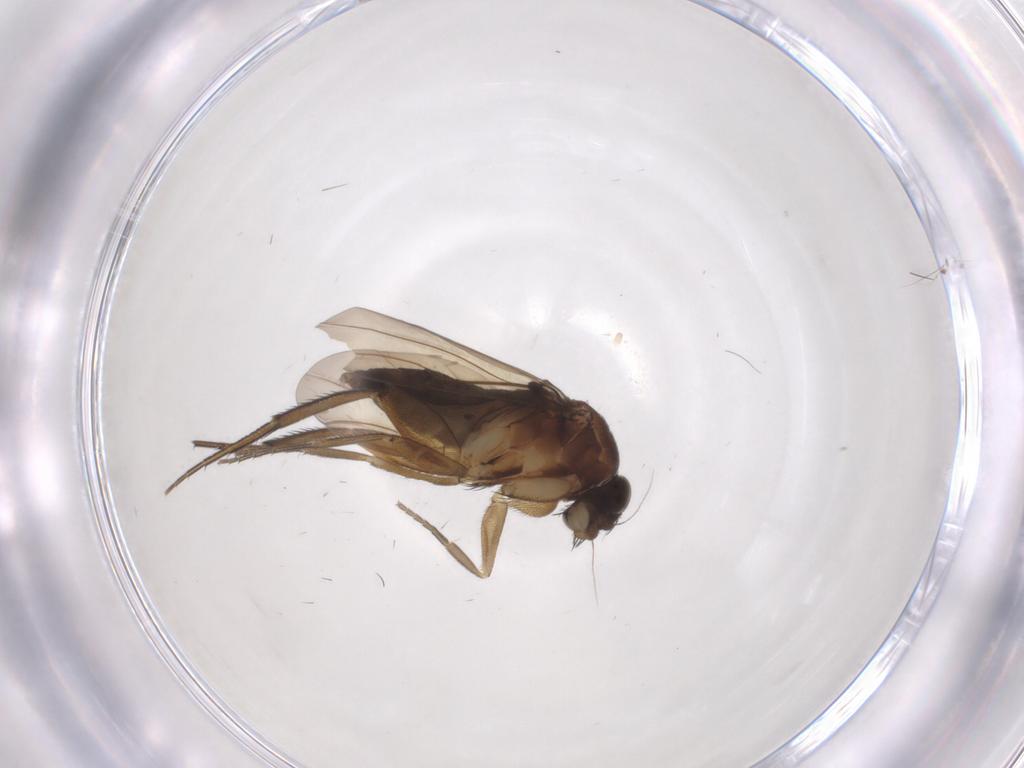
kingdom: Animalia
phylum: Arthropoda
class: Insecta
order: Diptera
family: Phoridae
